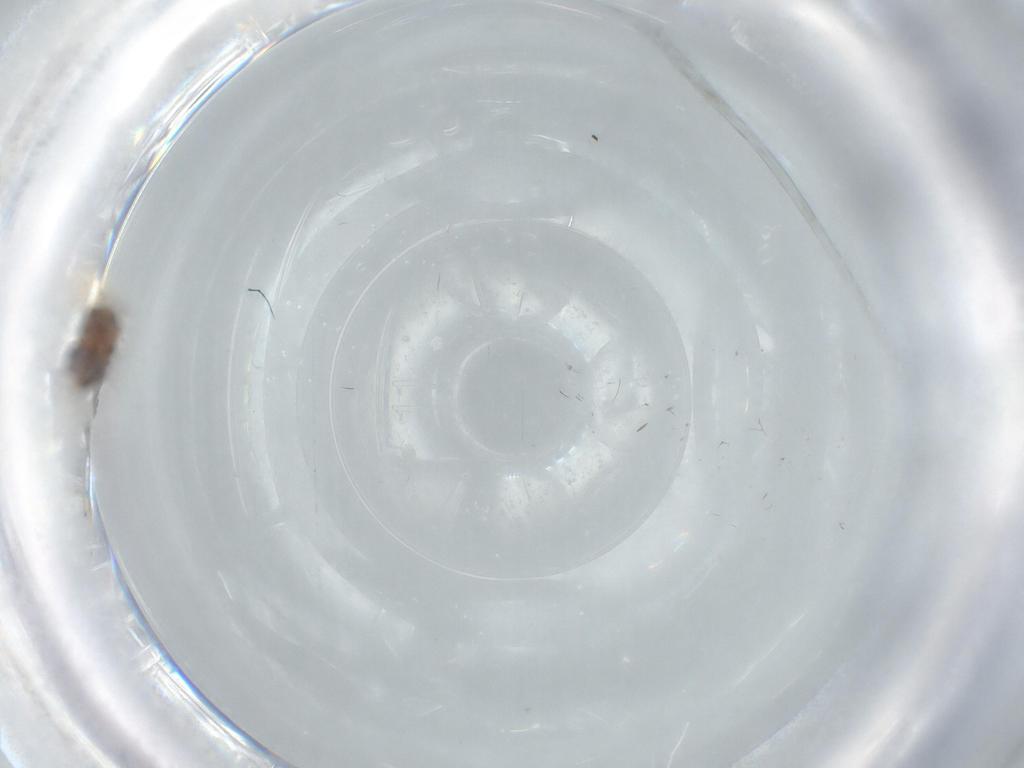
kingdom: Animalia
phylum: Arthropoda
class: Insecta
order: Diptera
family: Chironomidae
